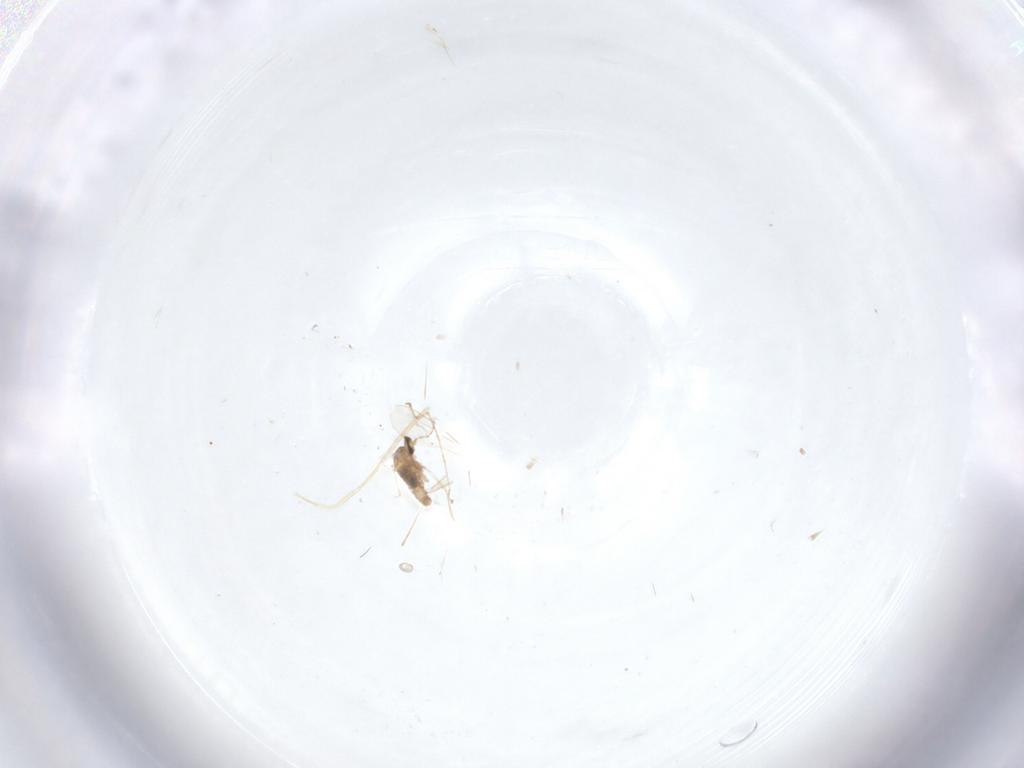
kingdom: Animalia
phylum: Arthropoda
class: Insecta
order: Diptera
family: Cecidomyiidae
